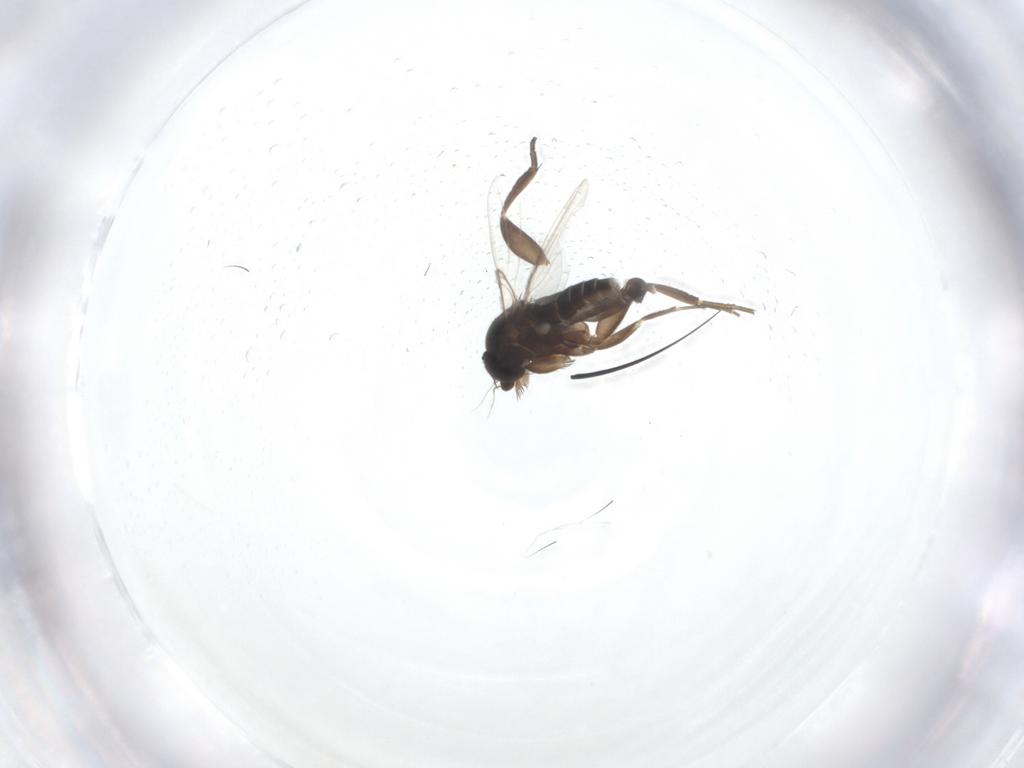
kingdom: Animalia
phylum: Arthropoda
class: Insecta
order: Diptera
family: Phoridae
